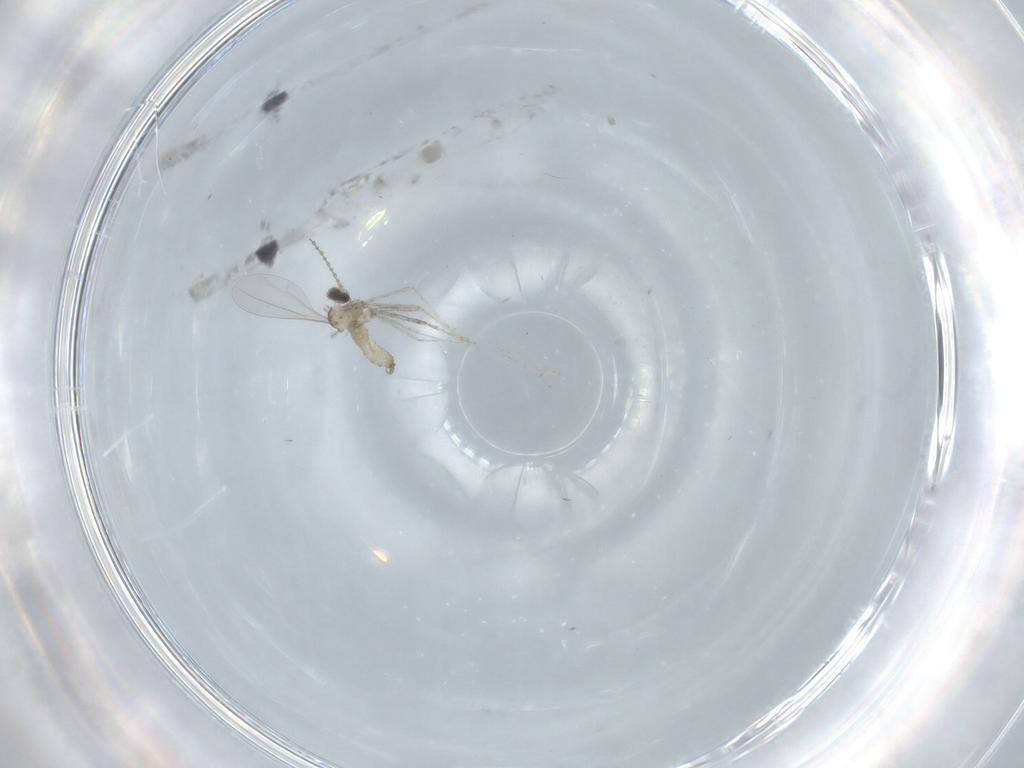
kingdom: Animalia
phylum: Arthropoda
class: Insecta
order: Diptera
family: Cecidomyiidae
